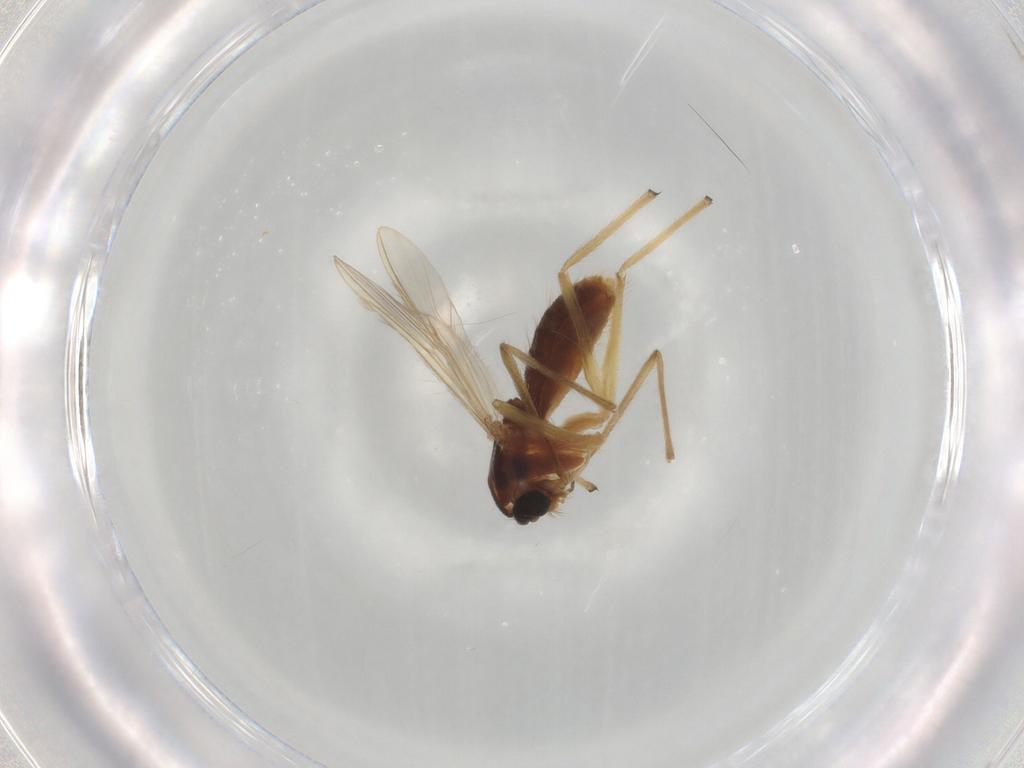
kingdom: Animalia
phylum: Arthropoda
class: Insecta
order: Diptera
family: Chironomidae
